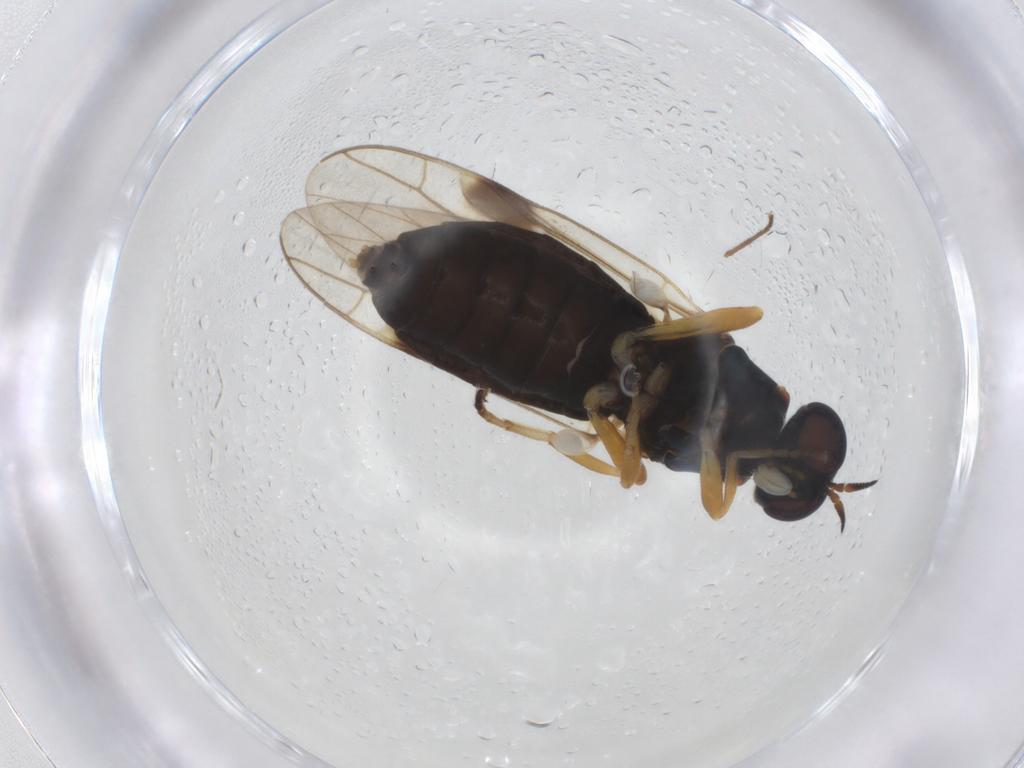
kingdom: Animalia
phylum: Arthropoda
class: Insecta
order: Diptera
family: Stratiomyidae
